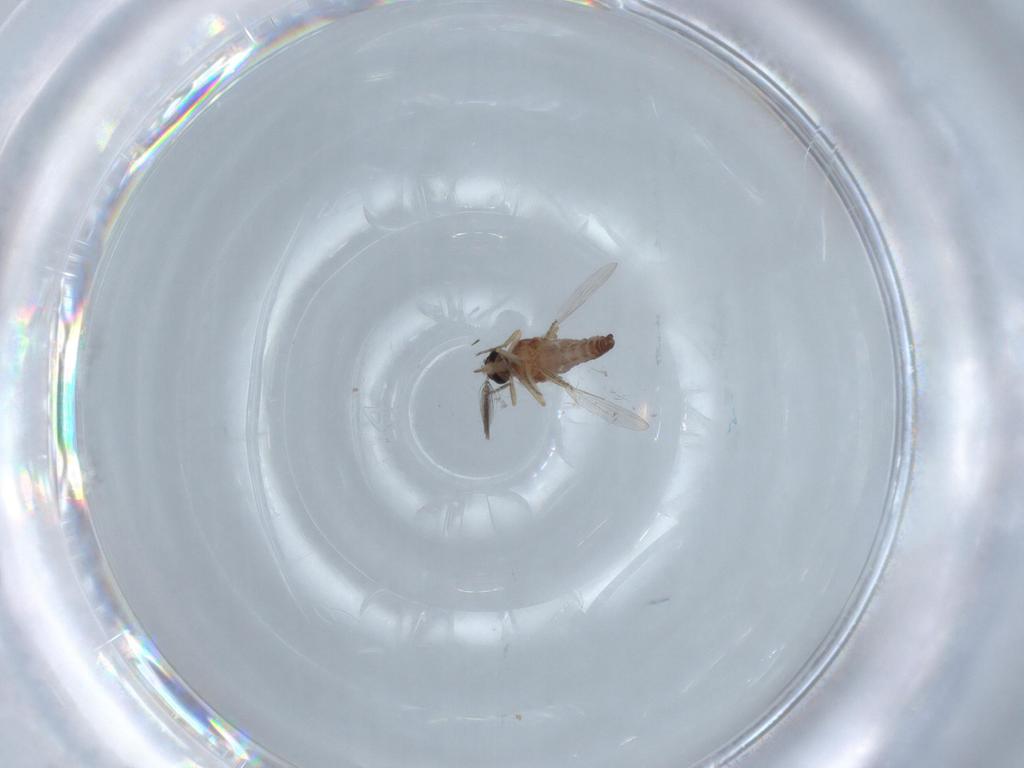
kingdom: Animalia
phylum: Arthropoda
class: Insecta
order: Diptera
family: Ceratopogonidae
